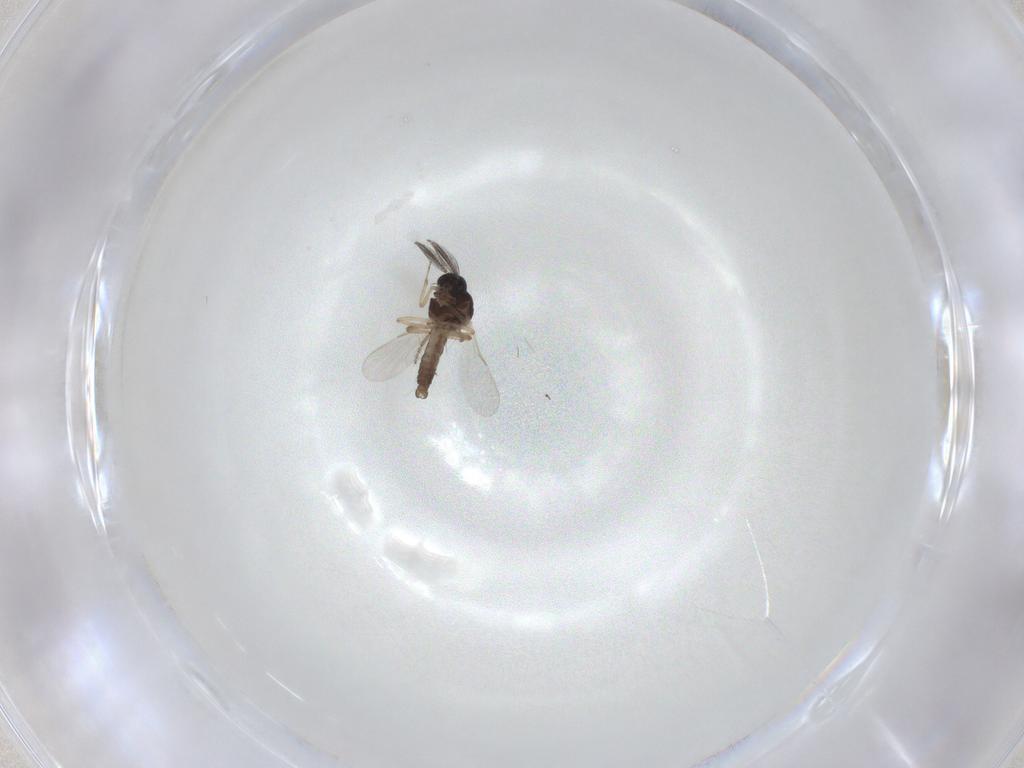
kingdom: Animalia
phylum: Arthropoda
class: Insecta
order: Diptera
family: Ceratopogonidae
